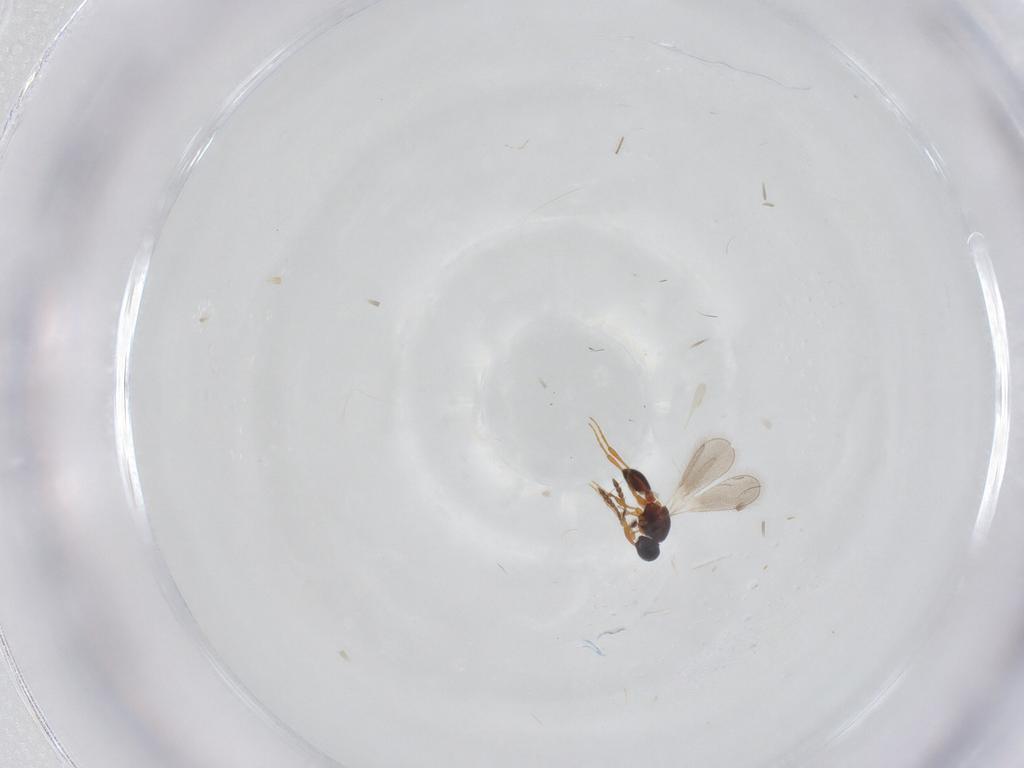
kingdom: Animalia
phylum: Arthropoda
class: Insecta
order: Hymenoptera
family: Platygastridae
